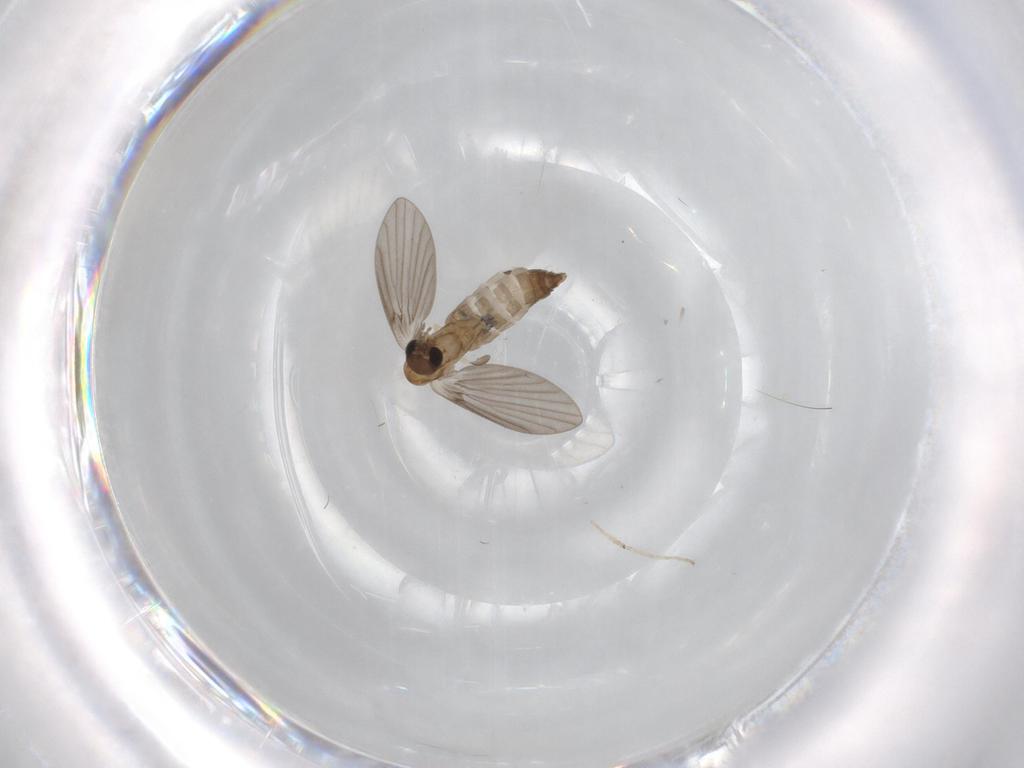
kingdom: Animalia
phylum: Arthropoda
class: Insecta
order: Diptera
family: Chironomidae
